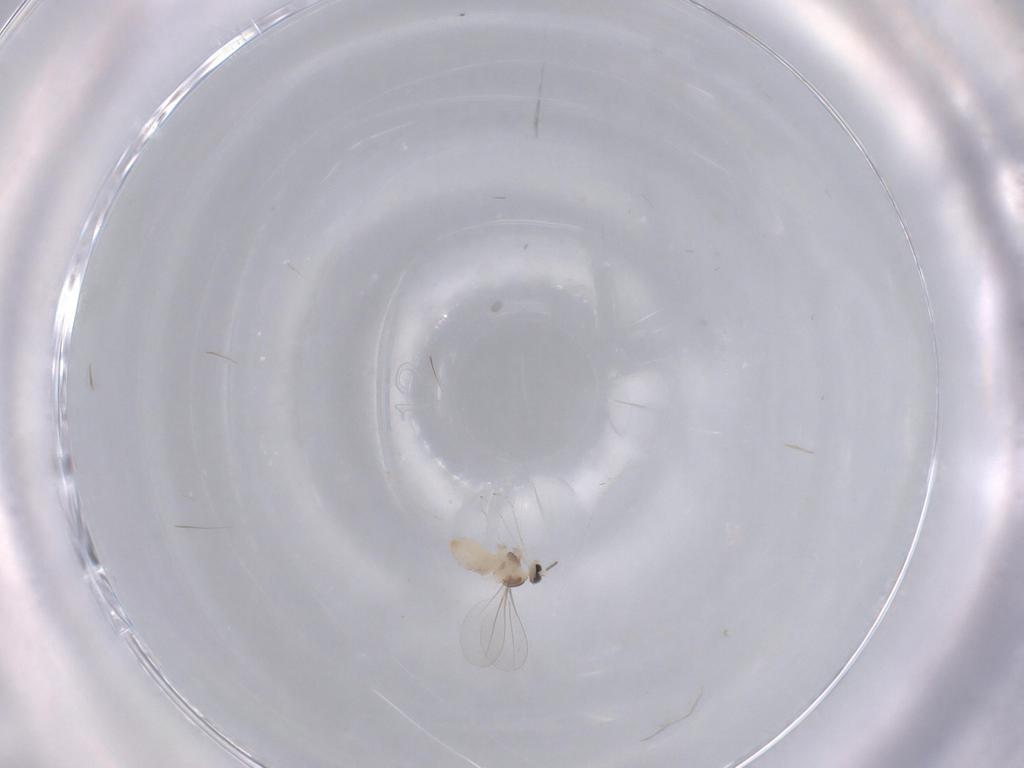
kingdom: Animalia
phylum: Arthropoda
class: Insecta
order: Diptera
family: Cecidomyiidae
